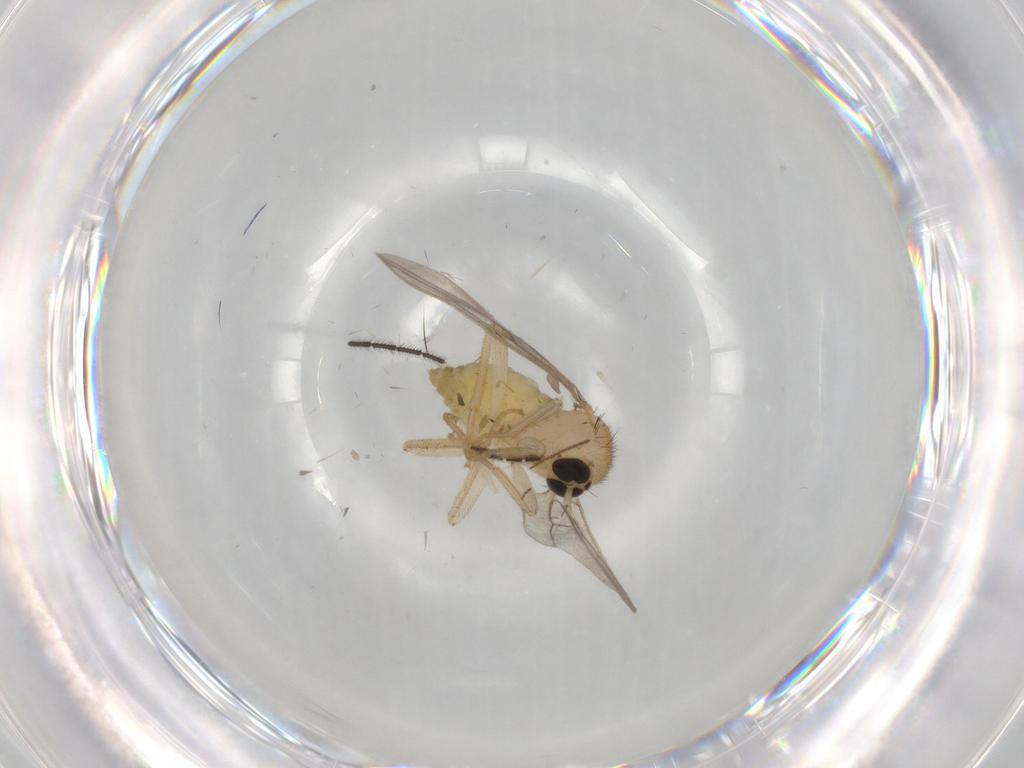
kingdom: Animalia
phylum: Arthropoda
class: Insecta
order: Diptera
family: Hybotidae
